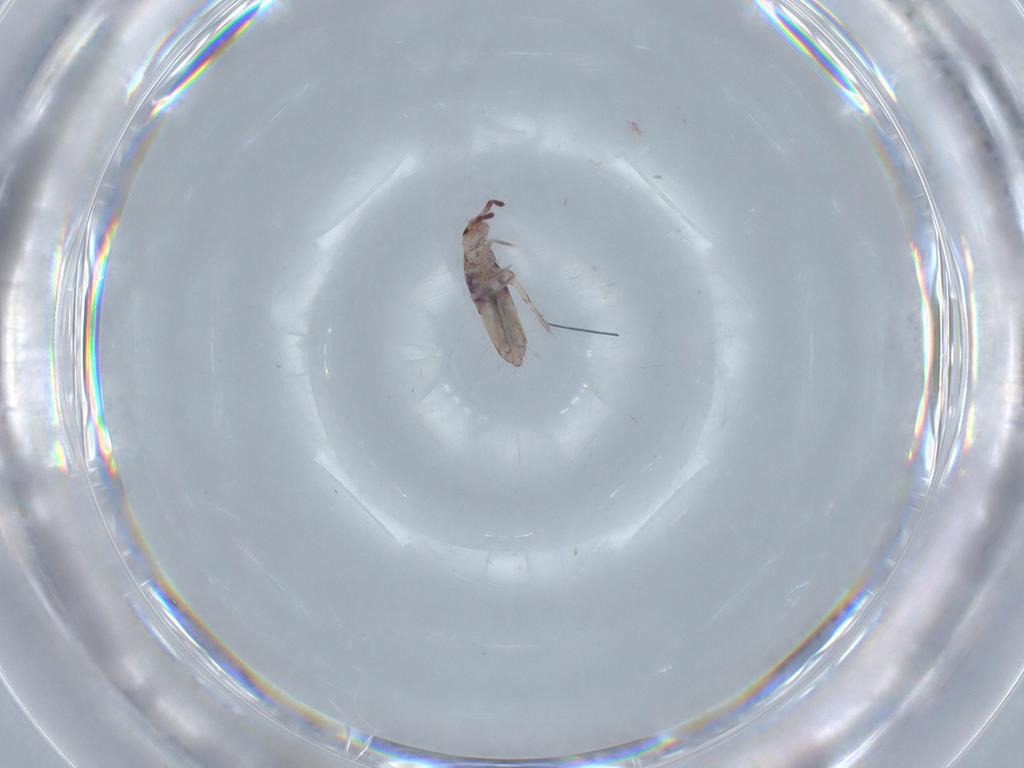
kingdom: Animalia
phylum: Arthropoda
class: Collembola
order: Entomobryomorpha
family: Entomobryidae
